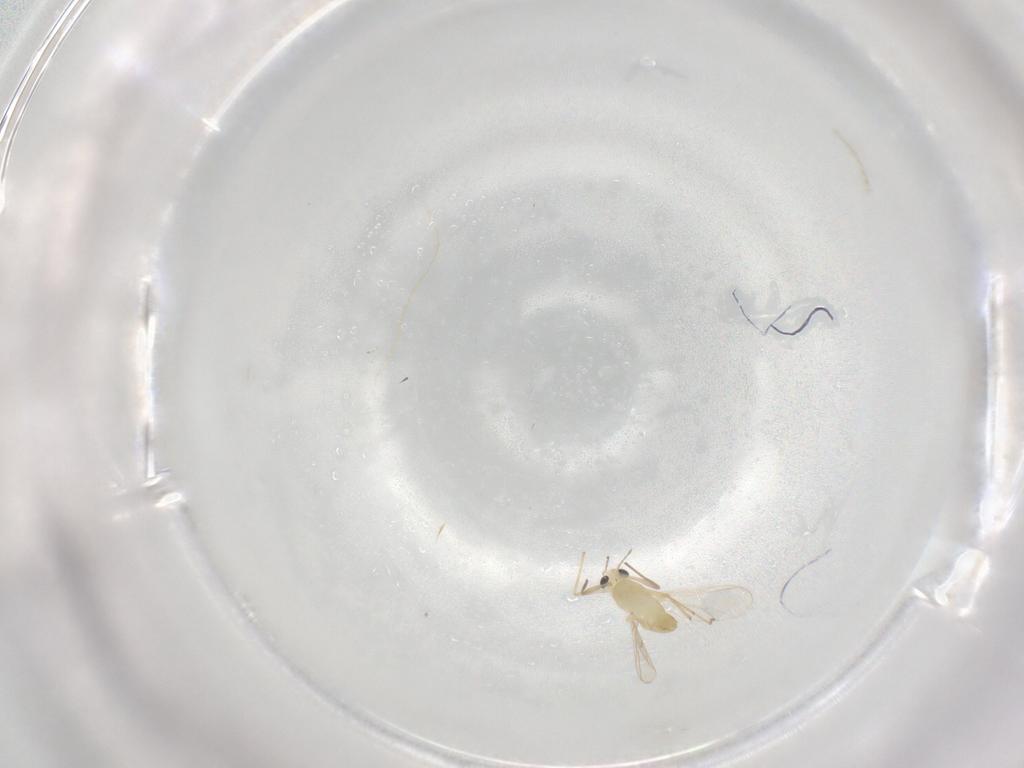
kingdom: Animalia
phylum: Arthropoda
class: Insecta
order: Diptera
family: Chironomidae
